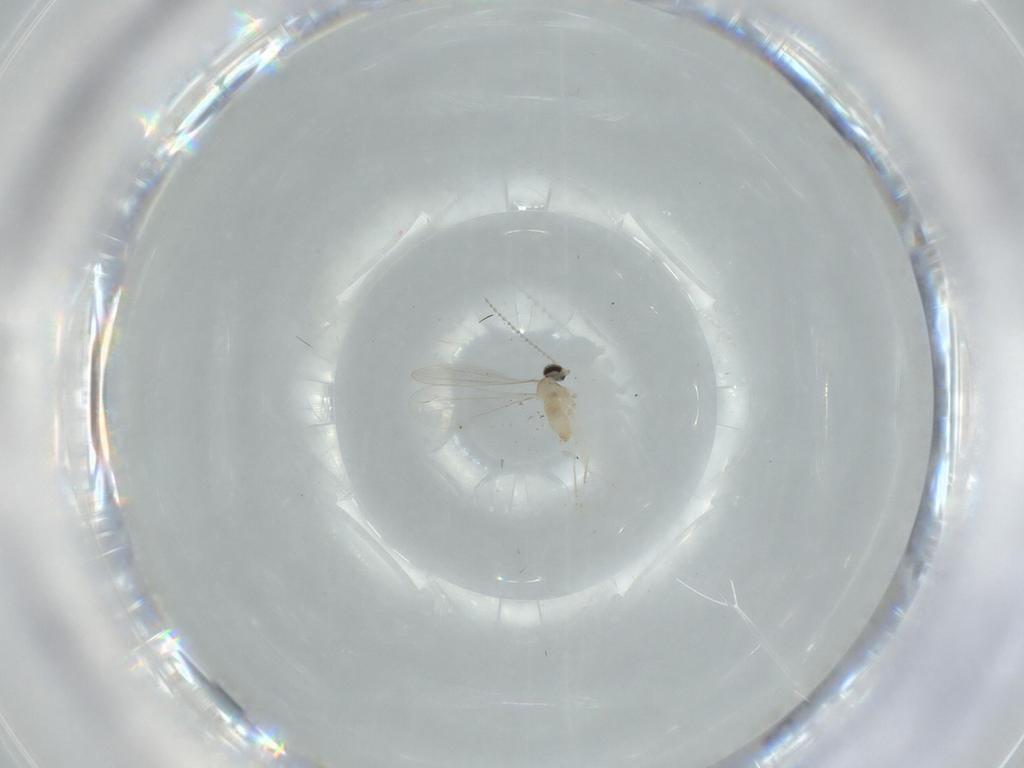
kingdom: Animalia
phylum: Arthropoda
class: Insecta
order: Diptera
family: Cecidomyiidae
